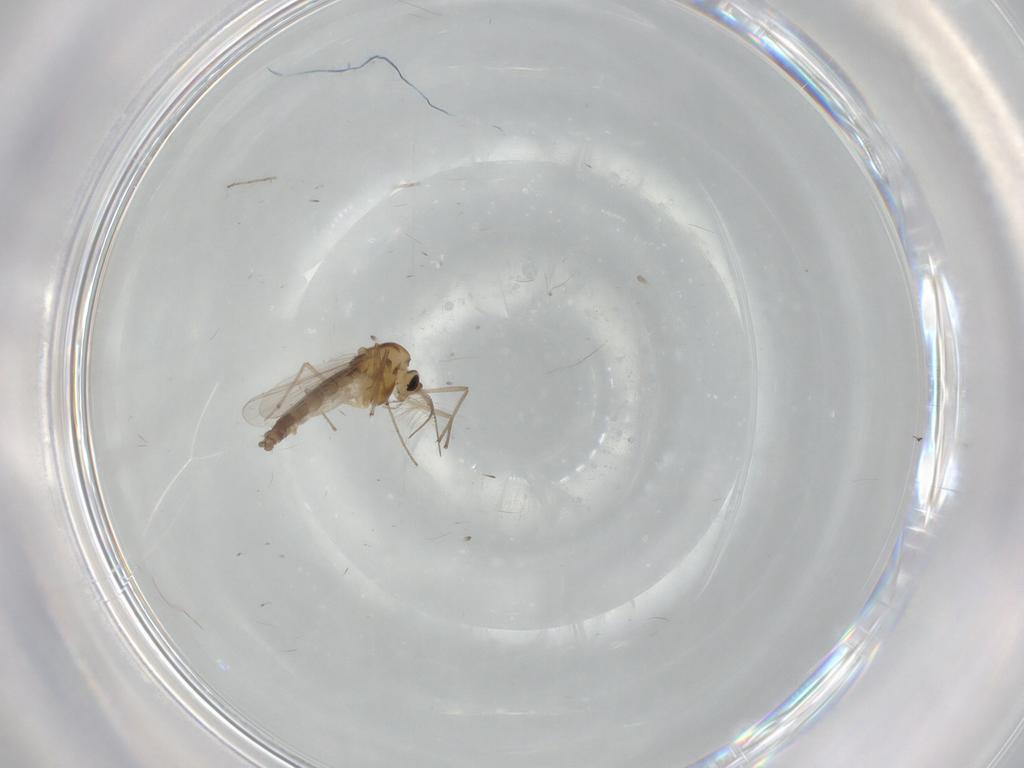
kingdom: Animalia
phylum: Arthropoda
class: Insecta
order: Diptera
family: Chironomidae
